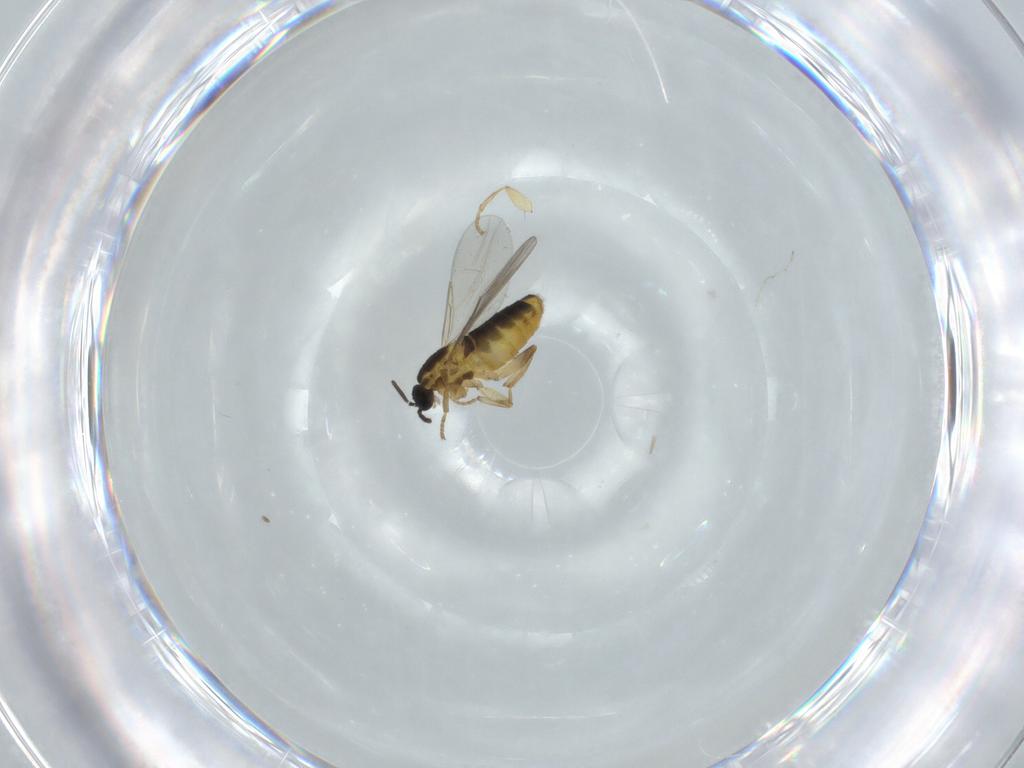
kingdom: Animalia
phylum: Arthropoda
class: Insecta
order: Diptera
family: Scatopsidae
